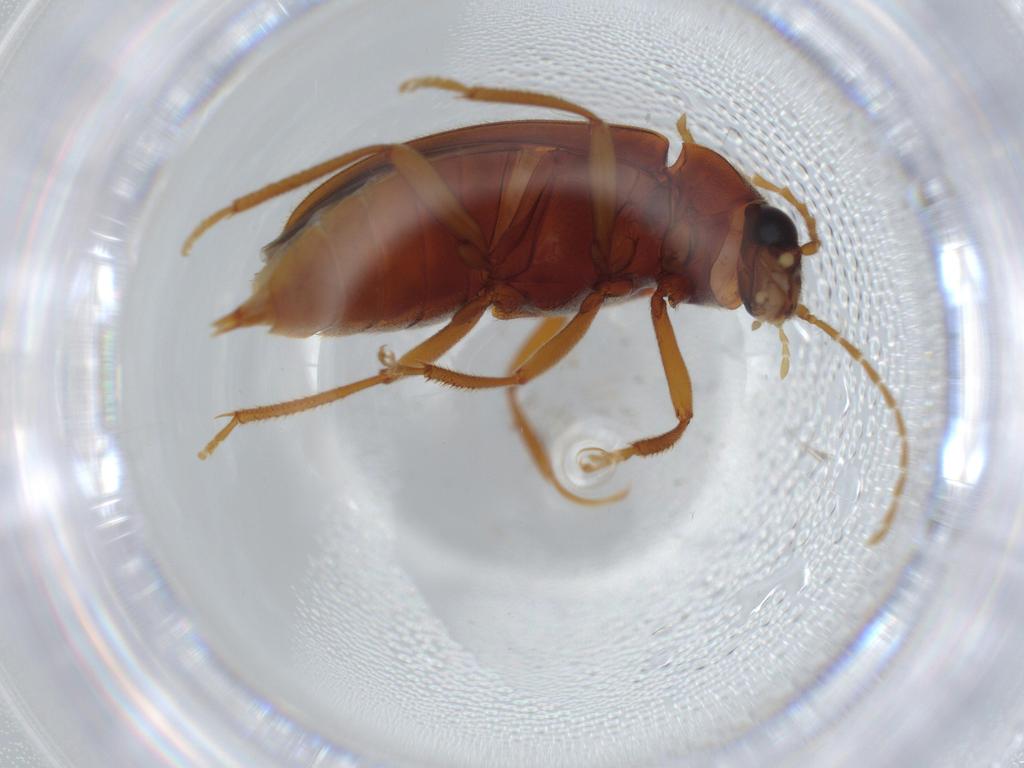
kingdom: Animalia
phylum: Arthropoda
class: Insecta
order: Coleoptera
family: Ptilodactylidae
